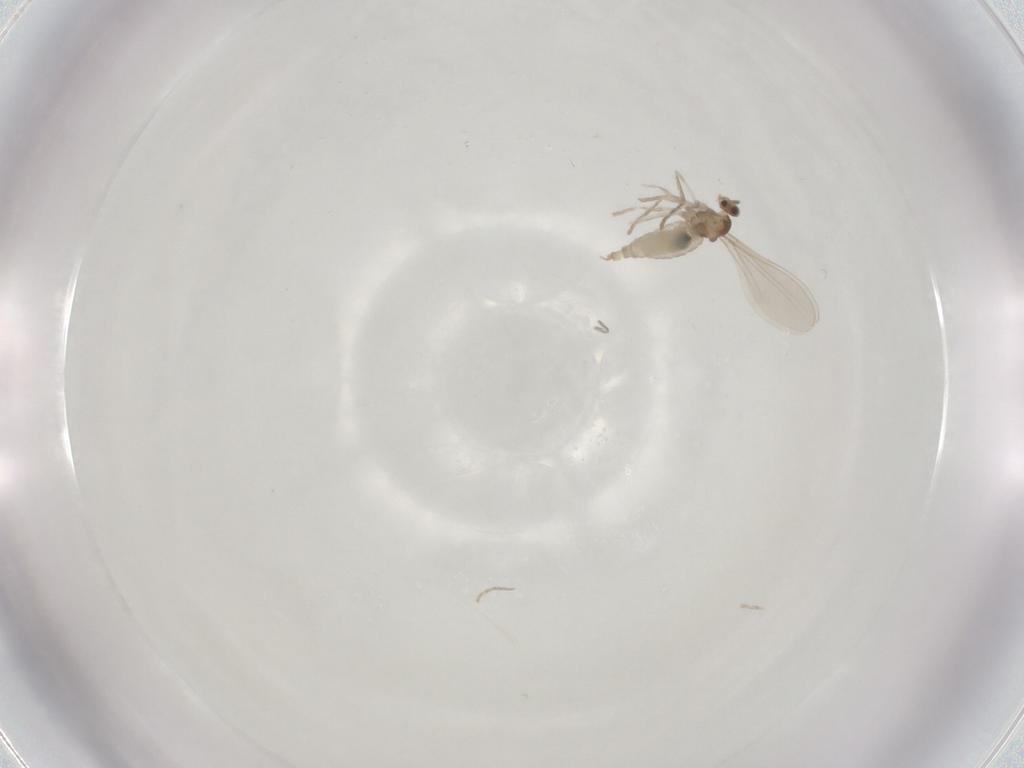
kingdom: Animalia
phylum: Arthropoda
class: Insecta
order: Diptera
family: Cecidomyiidae
